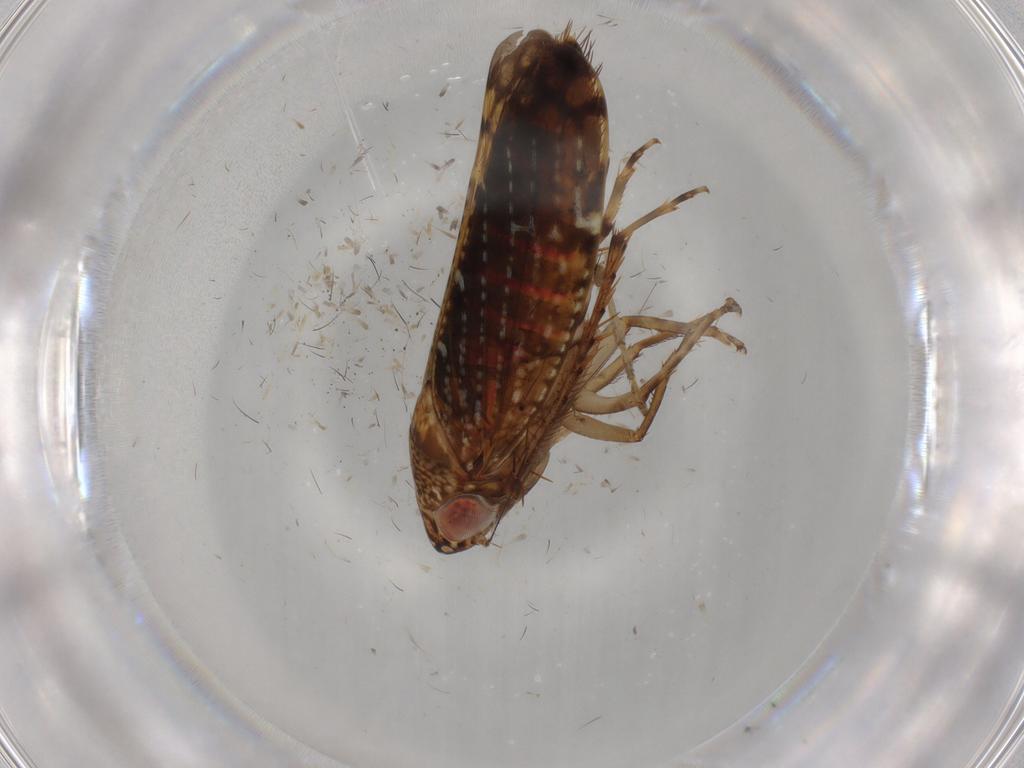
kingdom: Animalia
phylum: Arthropoda
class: Insecta
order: Hemiptera
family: Cicadellidae
